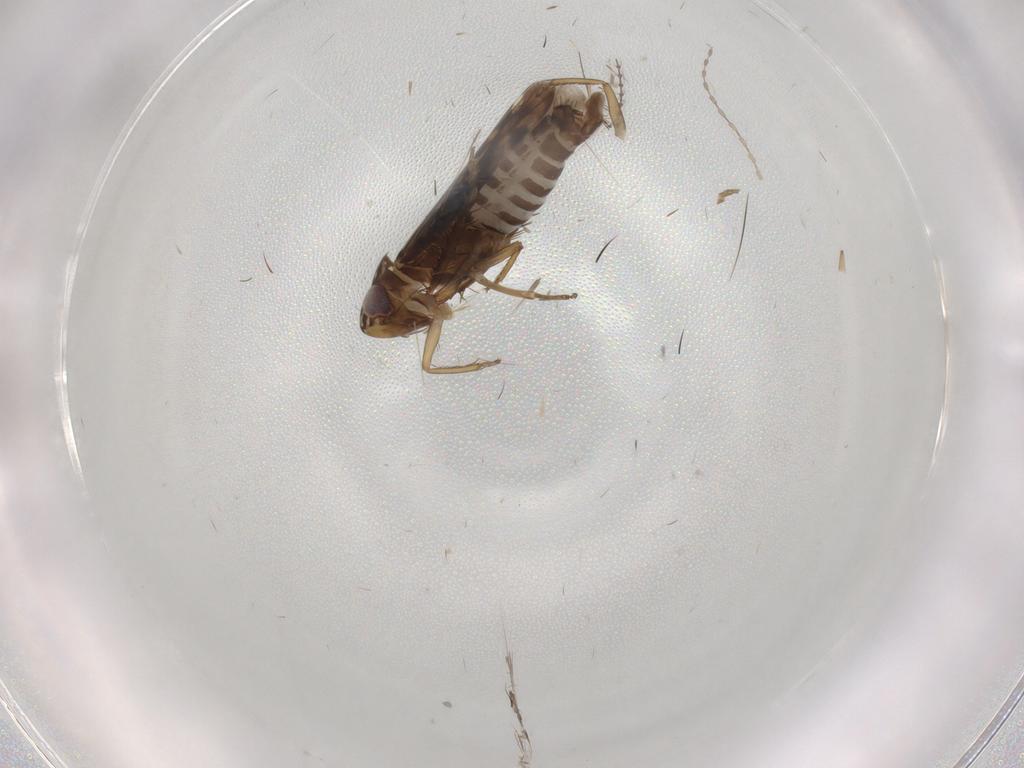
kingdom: Animalia
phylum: Arthropoda
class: Insecta
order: Hemiptera
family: Cicadellidae
